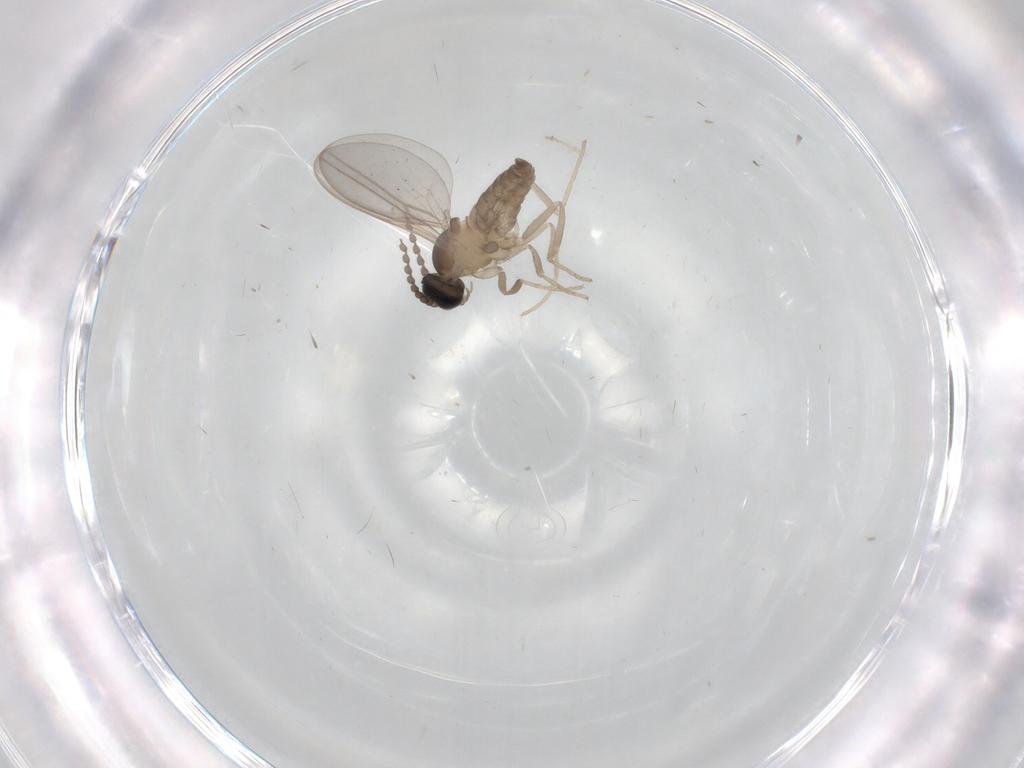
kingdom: Animalia
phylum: Arthropoda
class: Insecta
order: Diptera
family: Cecidomyiidae
